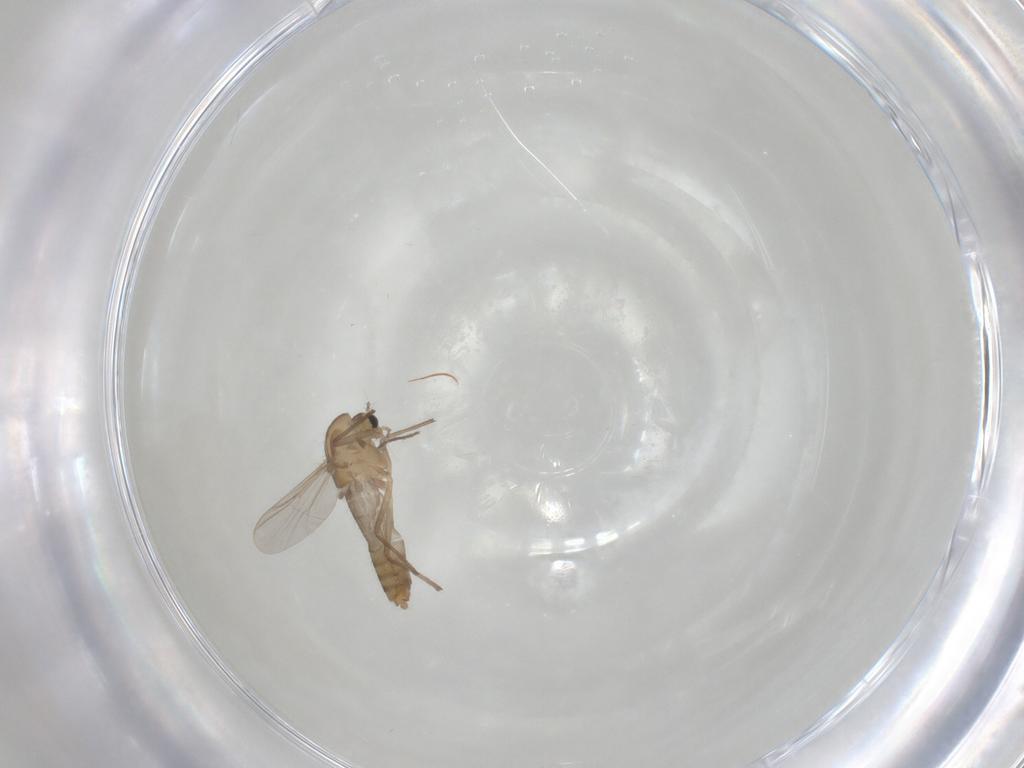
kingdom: Animalia
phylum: Arthropoda
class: Insecta
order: Diptera
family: Chironomidae
